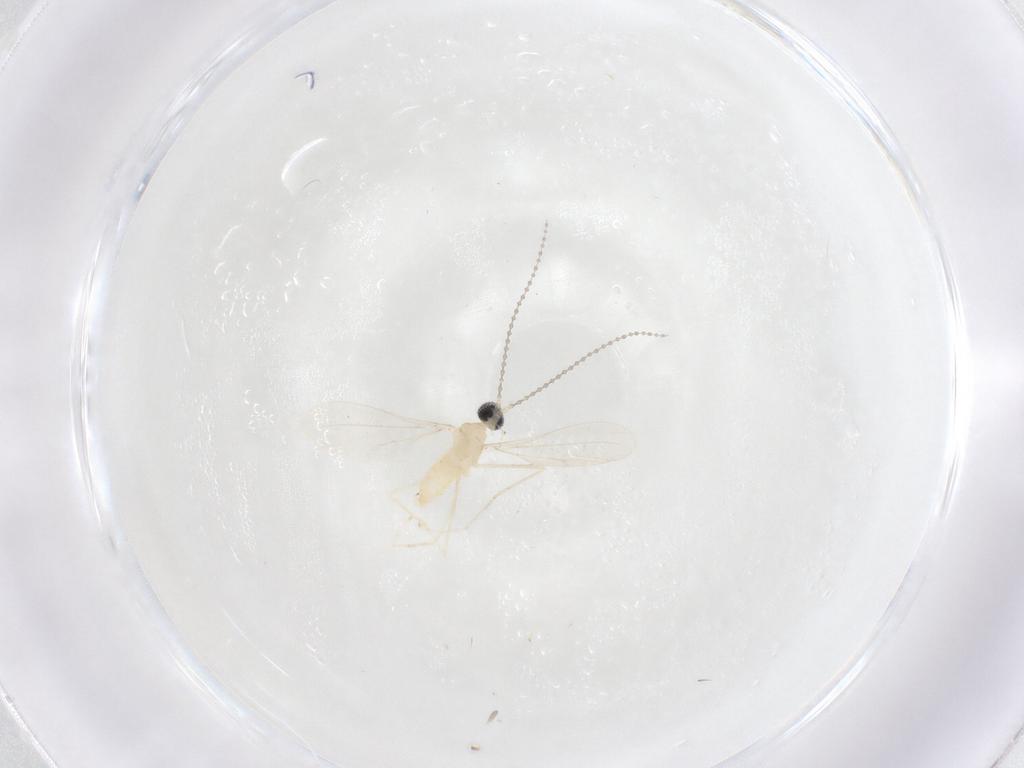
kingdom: Animalia
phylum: Arthropoda
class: Insecta
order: Diptera
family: Cecidomyiidae
